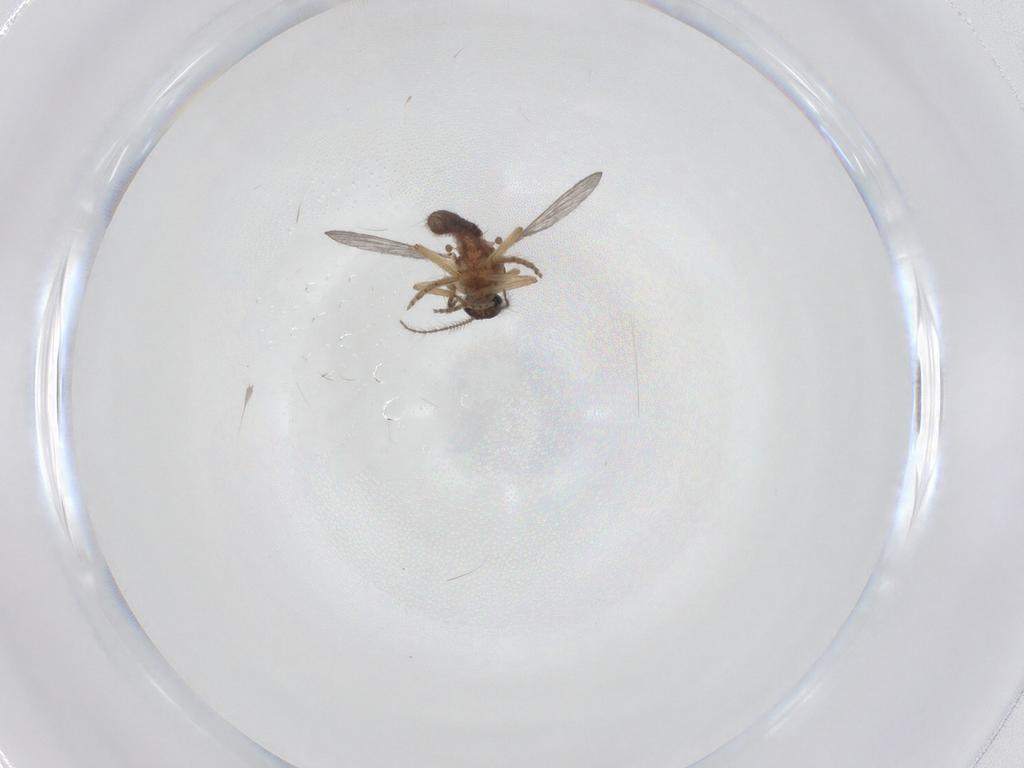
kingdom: Animalia
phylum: Arthropoda
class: Insecta
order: Diptera
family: Ceratopogonidae
